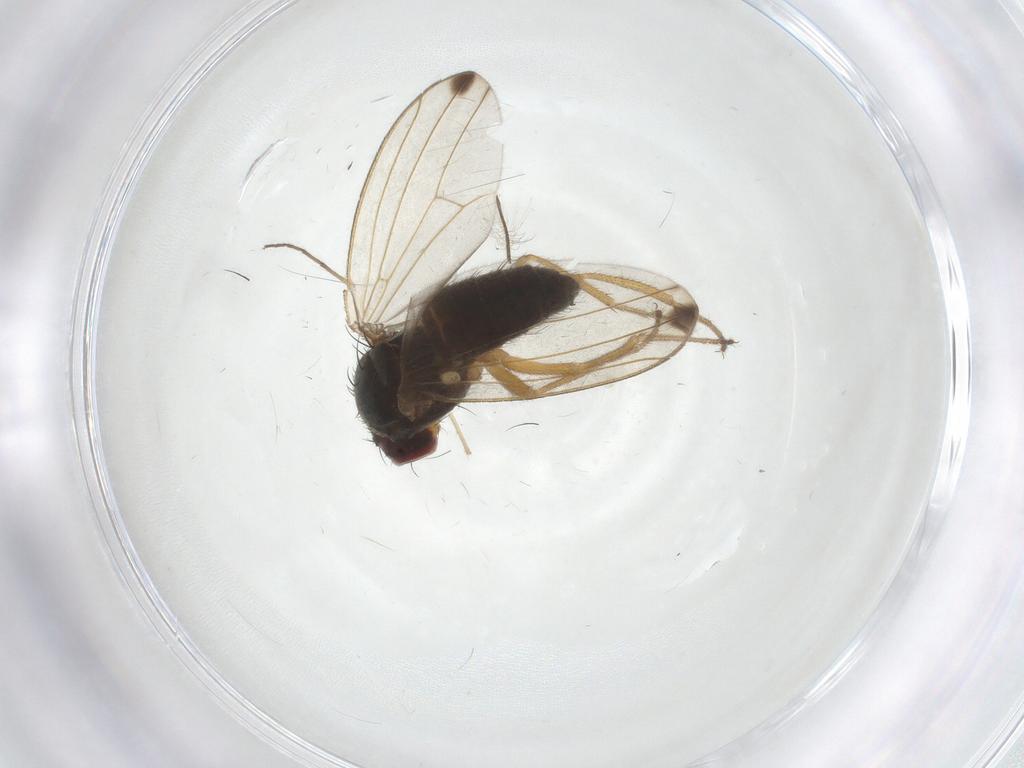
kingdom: Animalia
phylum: Arthropoda
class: Insecta
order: Diptera
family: Drosophilidae
